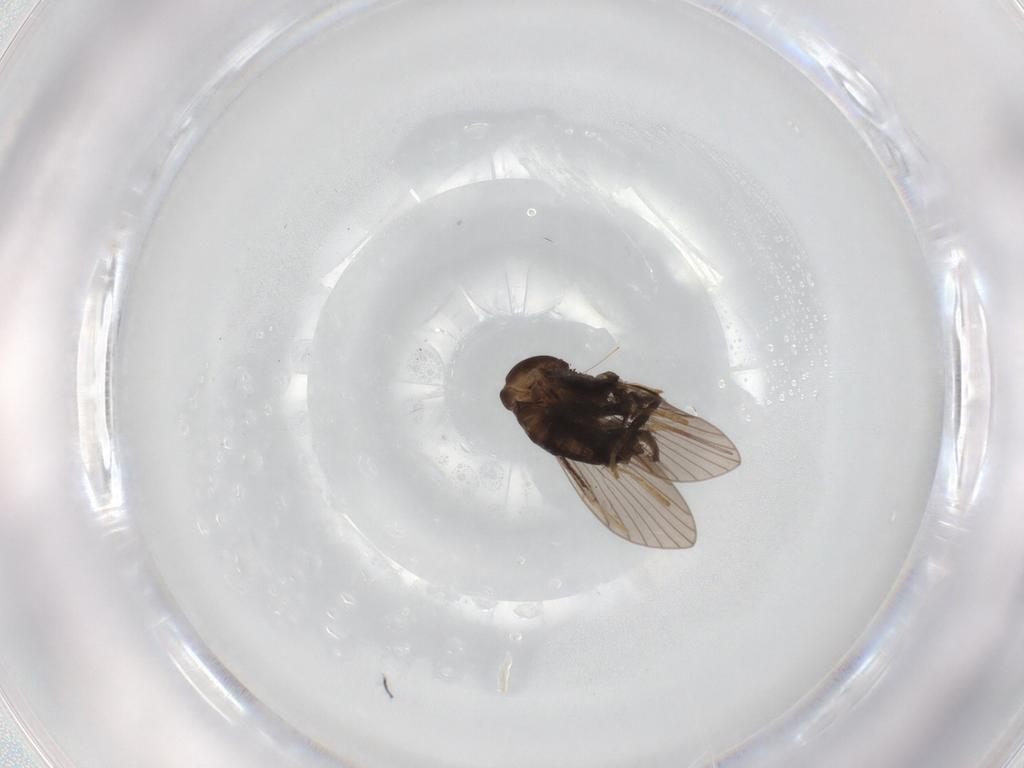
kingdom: Animalia
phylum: Arthropoda
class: Insecta
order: Diptera
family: Psychodidae
